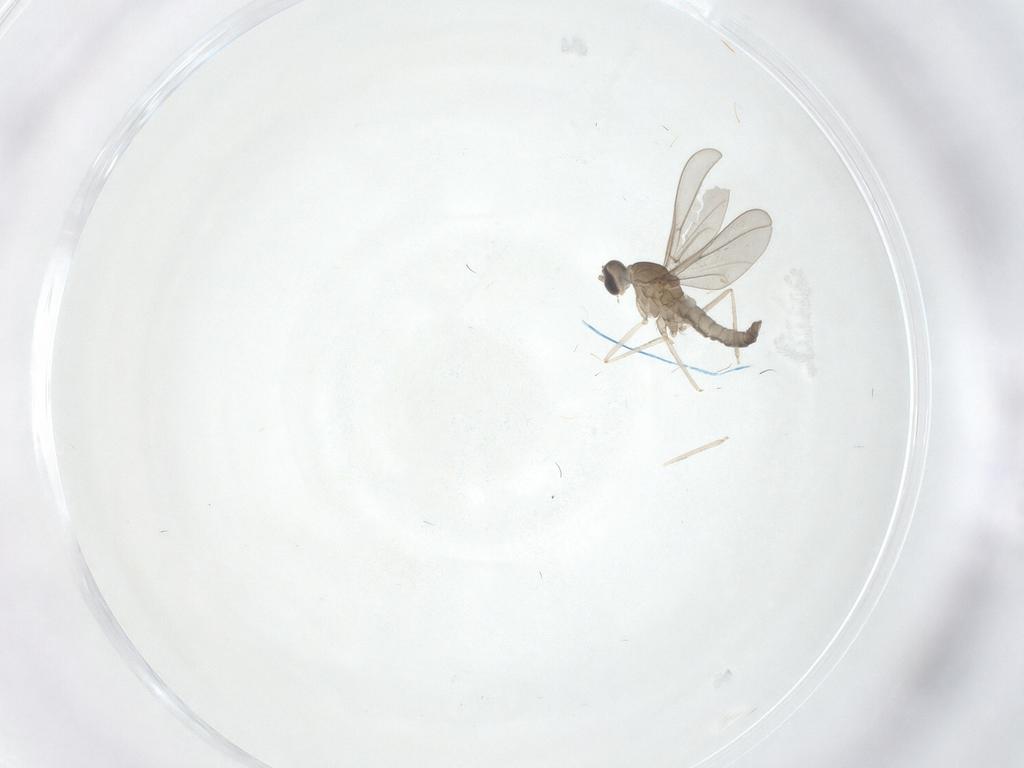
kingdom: Animalia
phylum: Arthropoda
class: Insecta
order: Diptera
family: Cecidomyiidae
